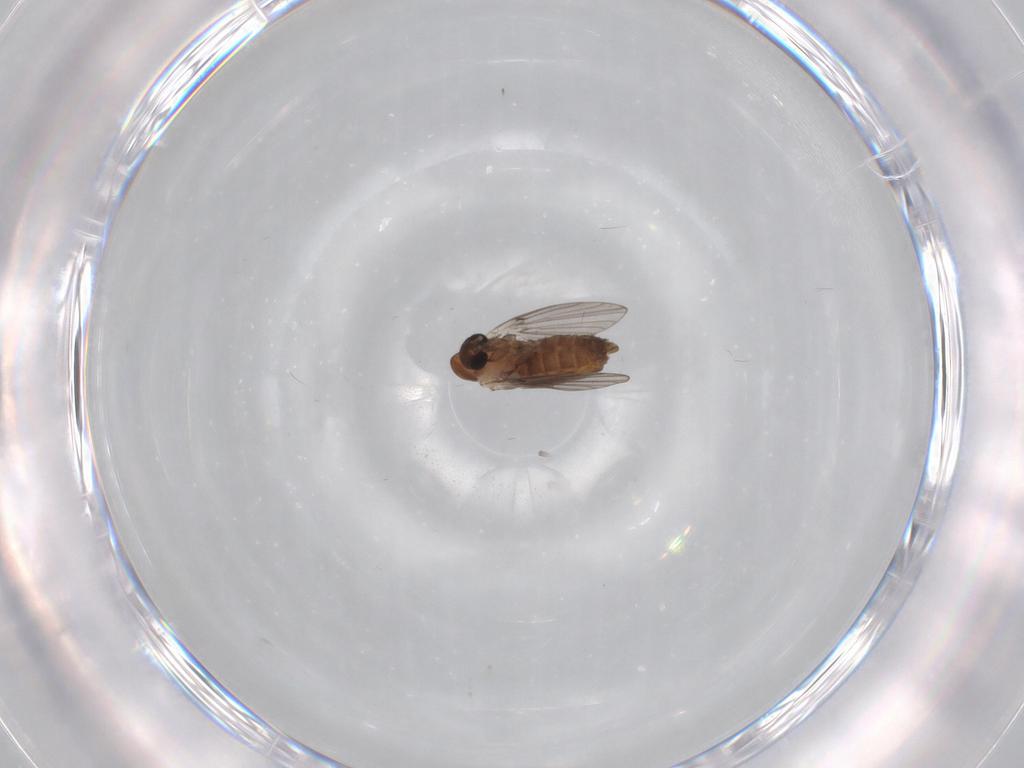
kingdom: Animalia
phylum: Arthropoda
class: Insecta
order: Diptera
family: Psychodidae
